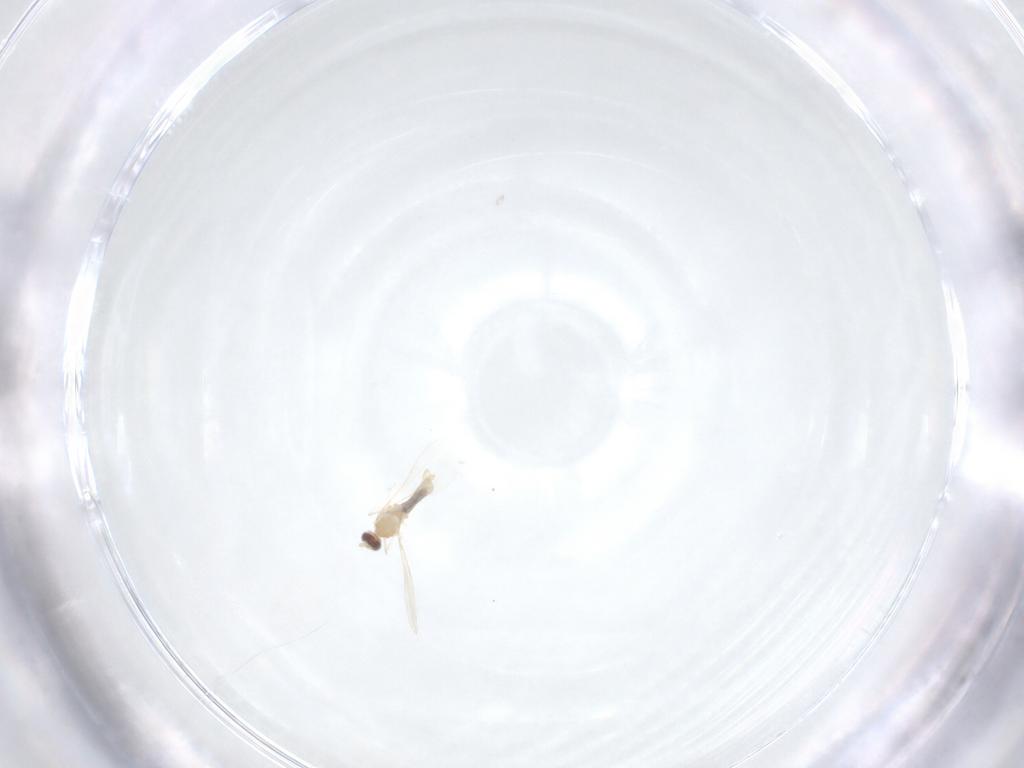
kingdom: Animalia
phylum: Arthropoda
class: Insecta
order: Diptera
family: Cecidomyiidae
